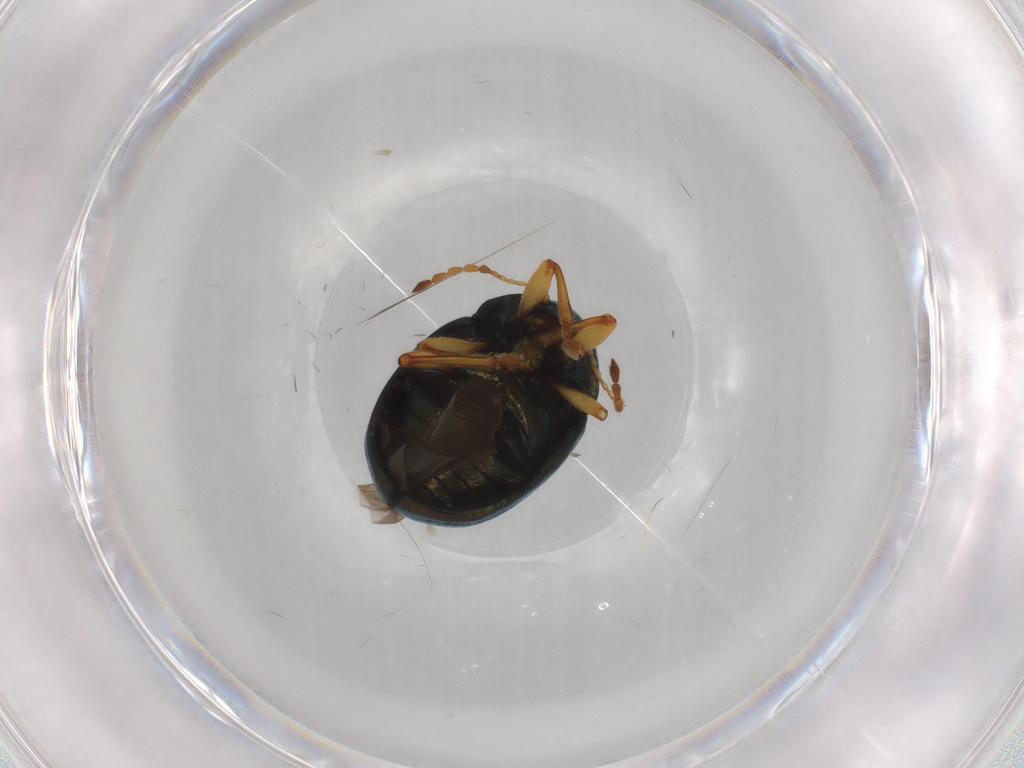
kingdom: Animalia
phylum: Arthropoda
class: Insecta
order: Coleoptera
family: Chrysomelidae
